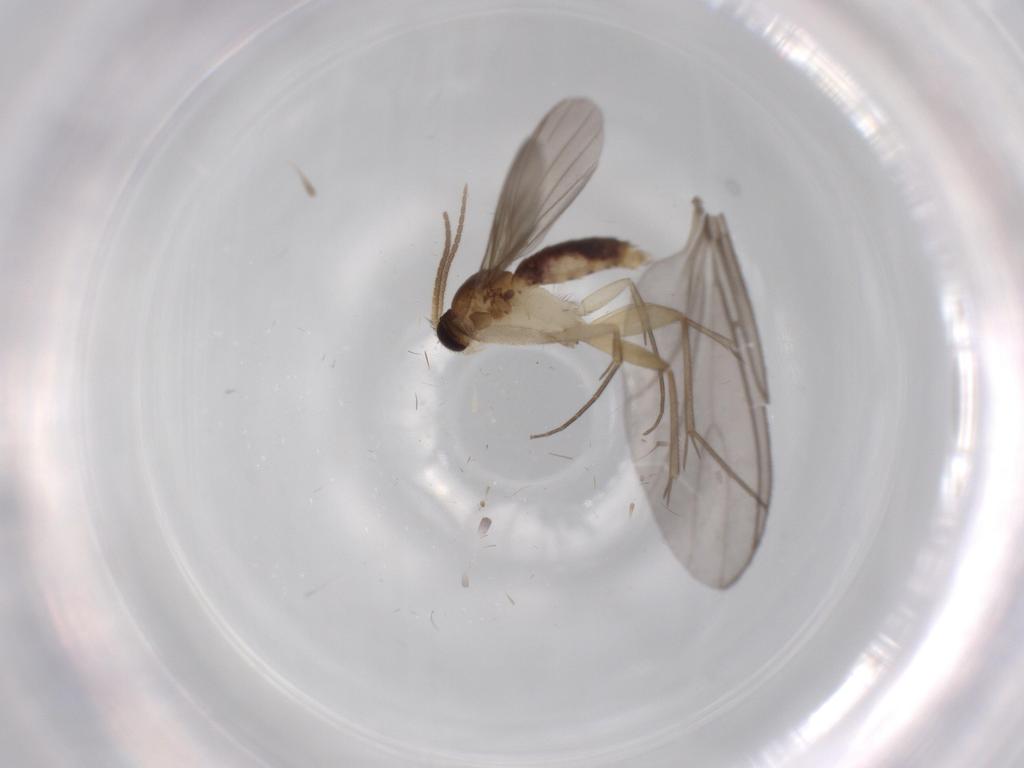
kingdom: Animalia
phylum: Arthropoda
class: Insecta
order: Diptera
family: Mycetophilidae
